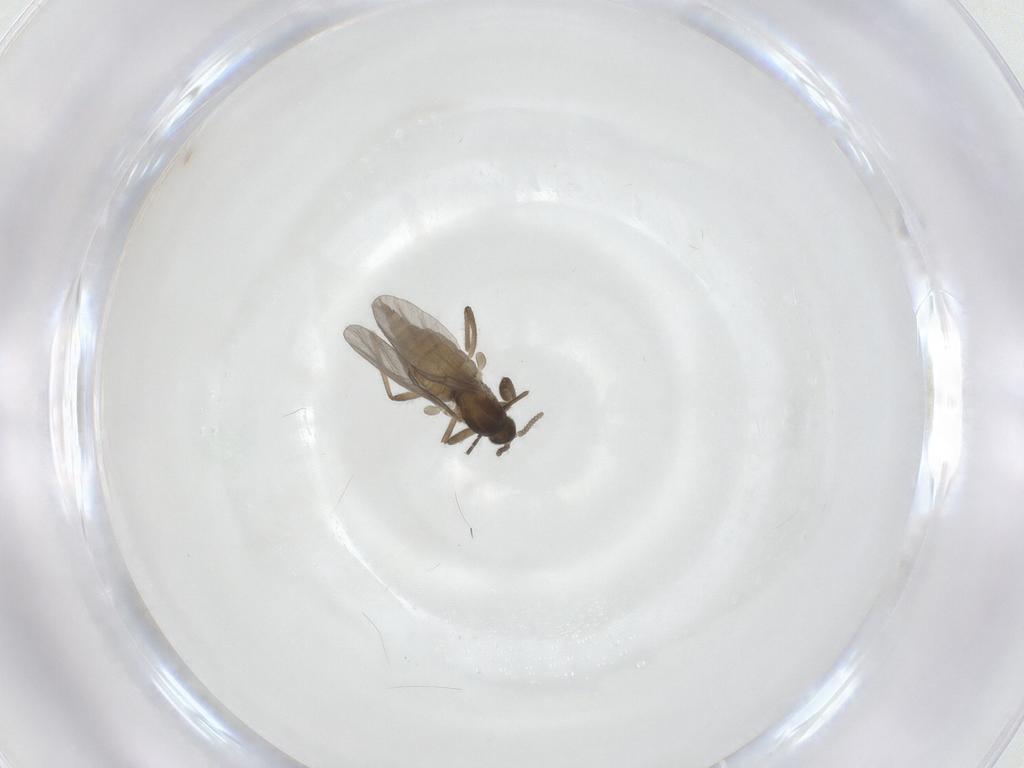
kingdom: Animalia
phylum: Arthropoda
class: Insecta
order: Diptera
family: Cecidomyiidae
